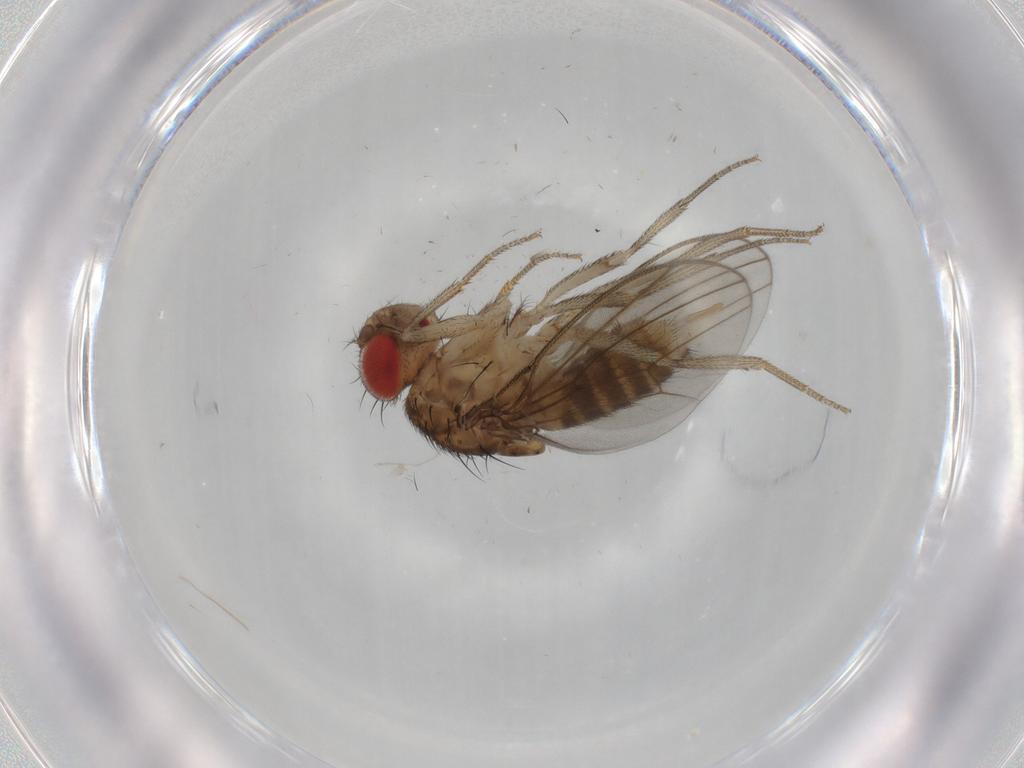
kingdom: Animalia
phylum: Arthropoda
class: Insecta
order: Diptera
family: Drosophilidae
